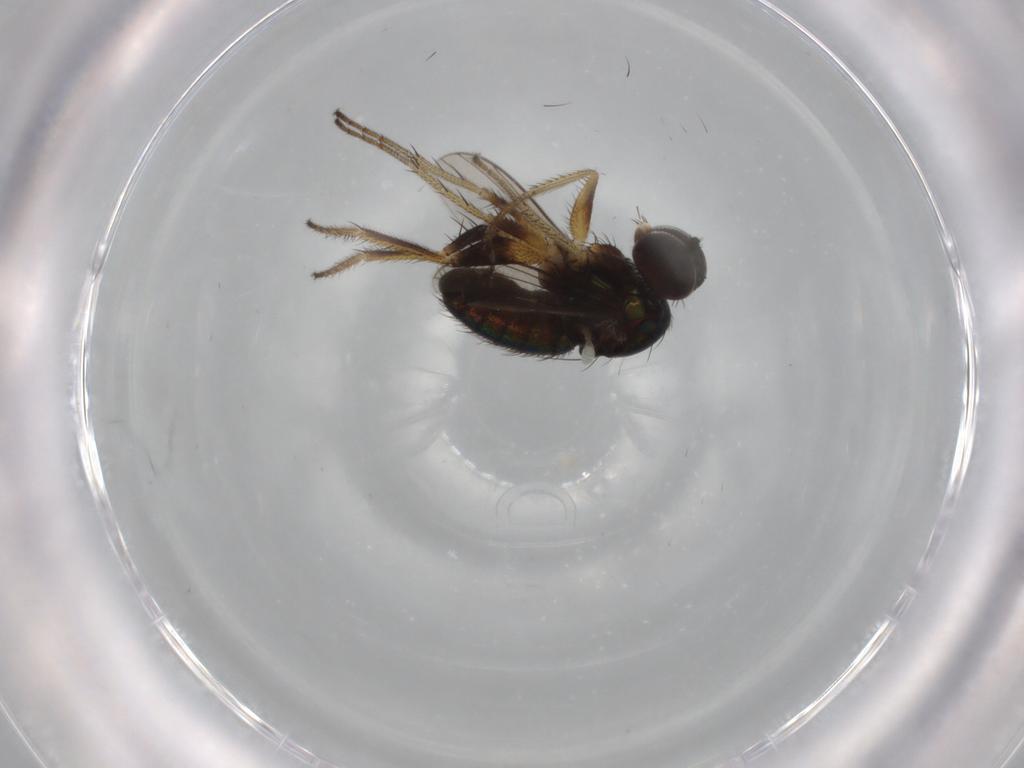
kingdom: Animalia
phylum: Arthropoda
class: Insecta
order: Diptera
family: Dolichopodidae
